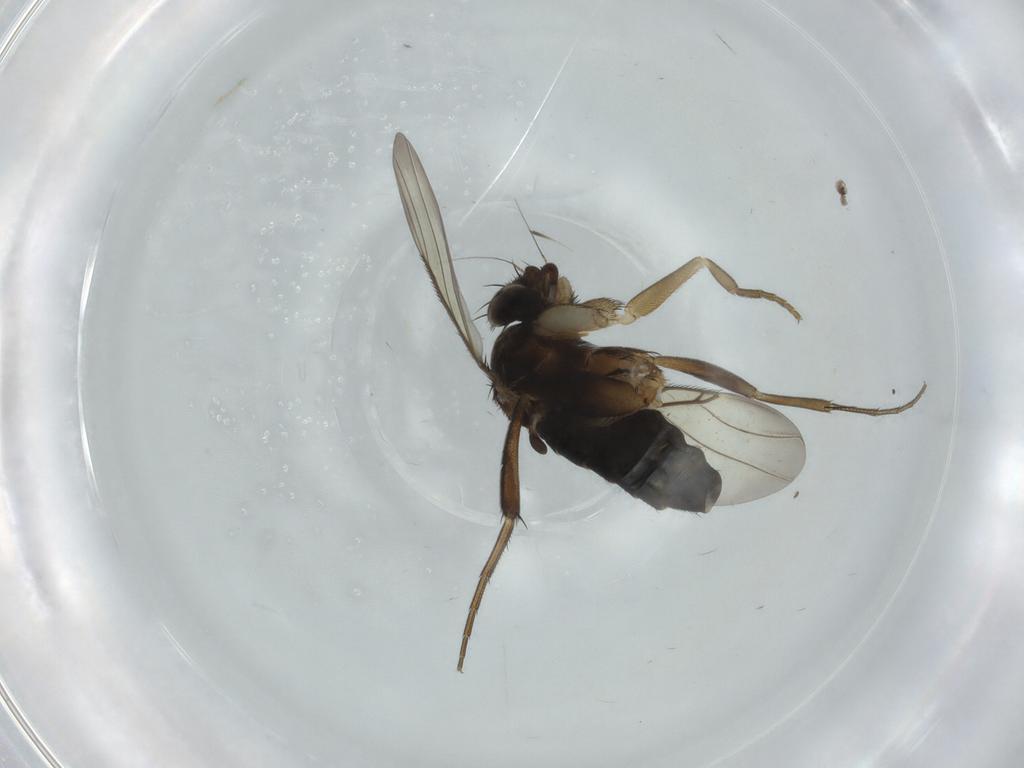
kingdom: Animalia
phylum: Arthropoda
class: Insecta
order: Diptera
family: Phoridae
